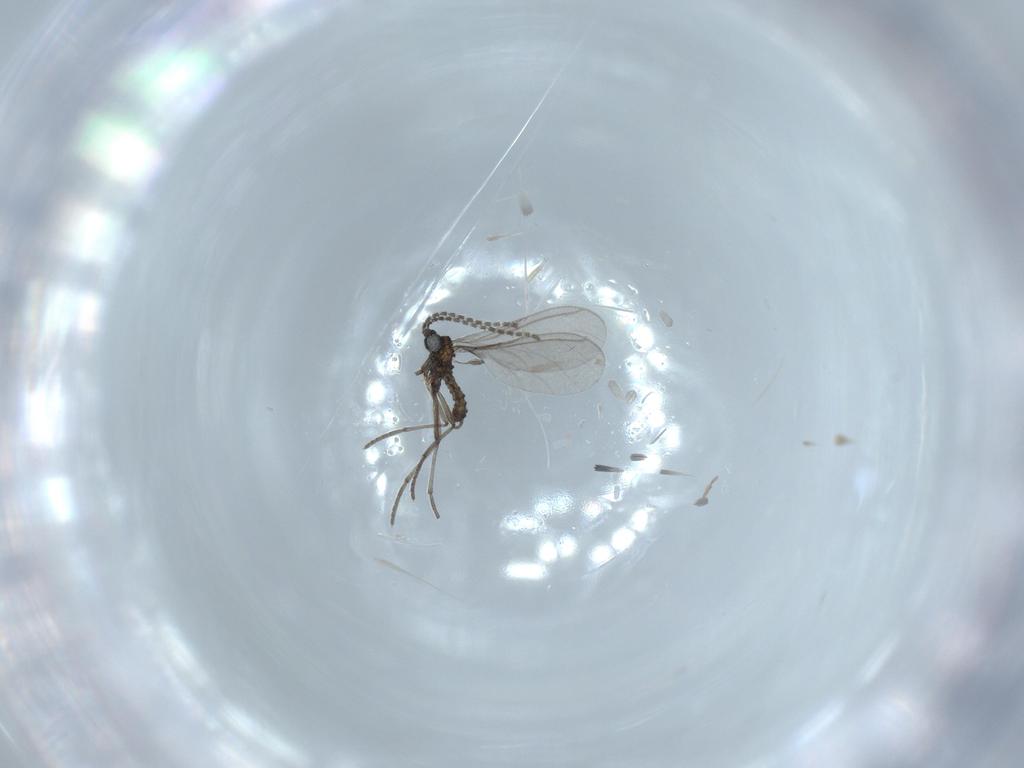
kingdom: Animalia
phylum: Arthropoda
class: Insecta
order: Diptera
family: Sciaridae
